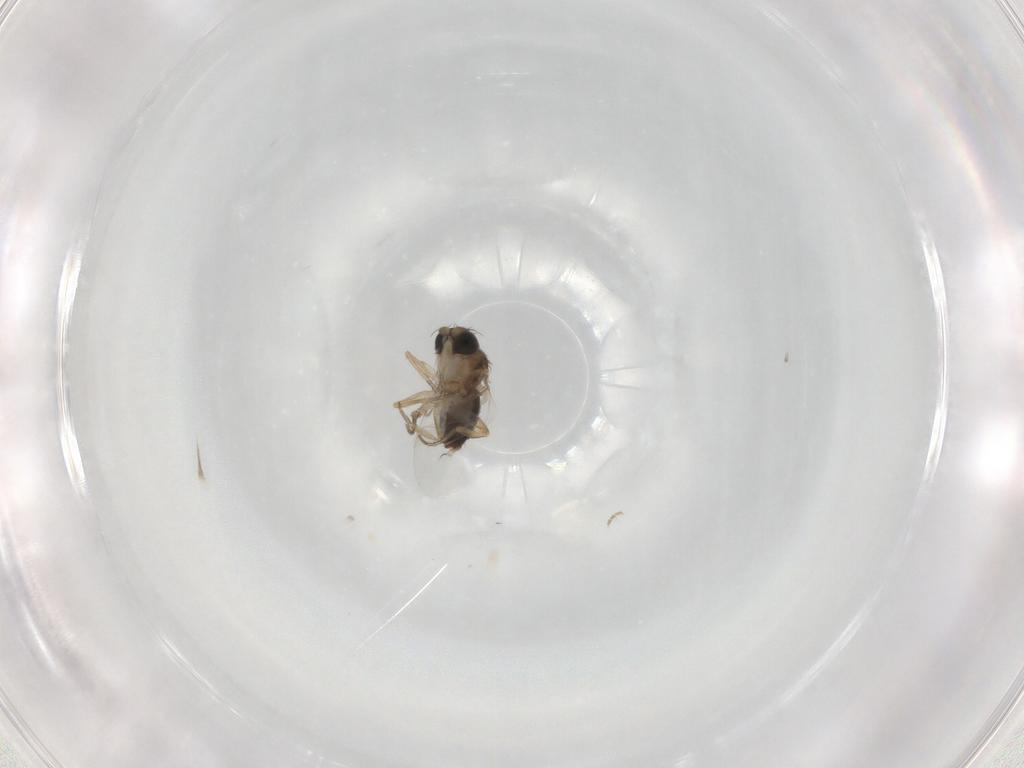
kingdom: Animalia
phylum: Arthropoda
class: Insecta
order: Diptera
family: Phoridae
